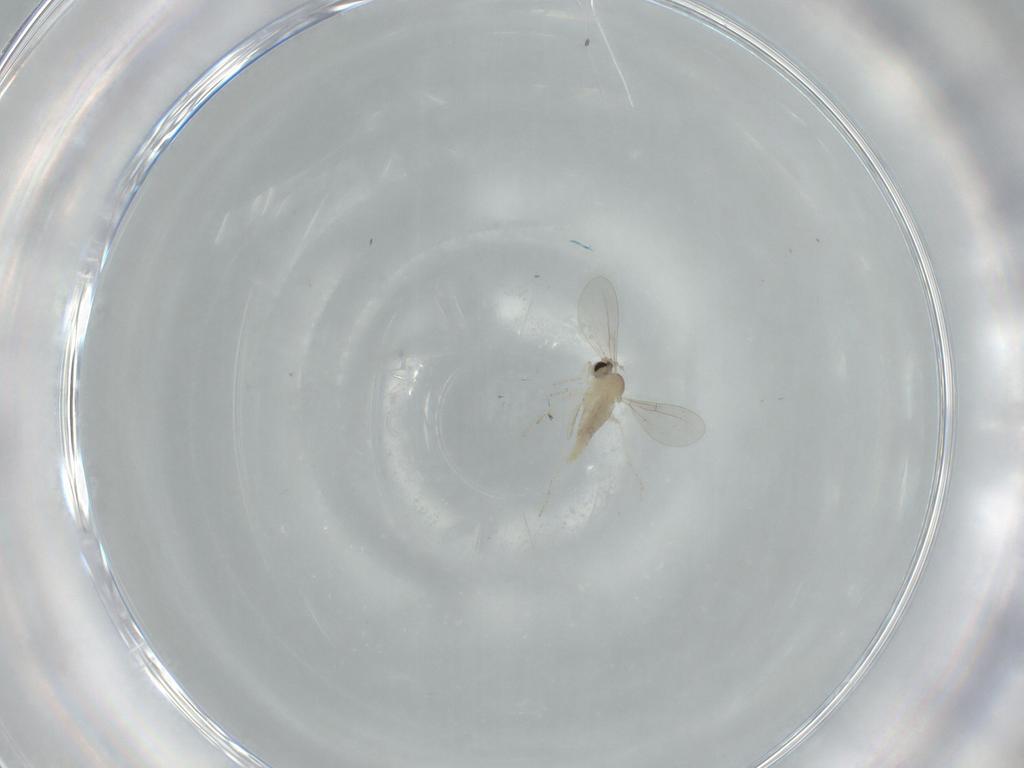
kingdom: Animalia
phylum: Arthropoda
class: Insecta
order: Diptera
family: Cecidomyiidae
